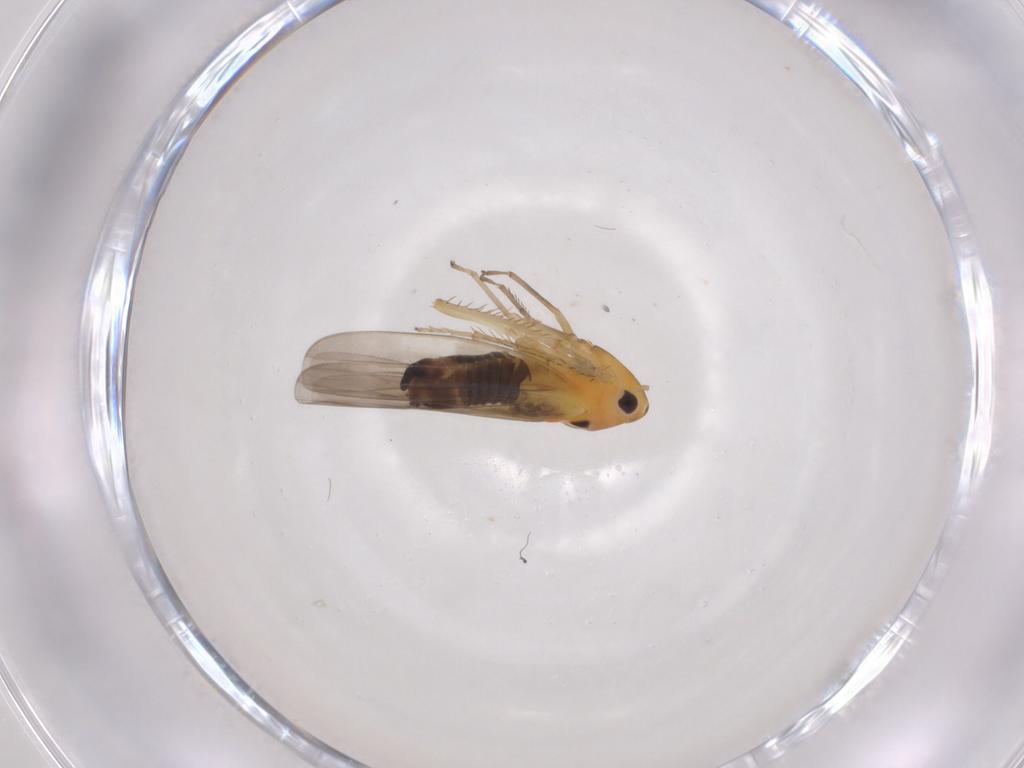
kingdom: Animalia
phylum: Arthropoda
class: Insecta
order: Hemiptera
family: Cicadellidae
